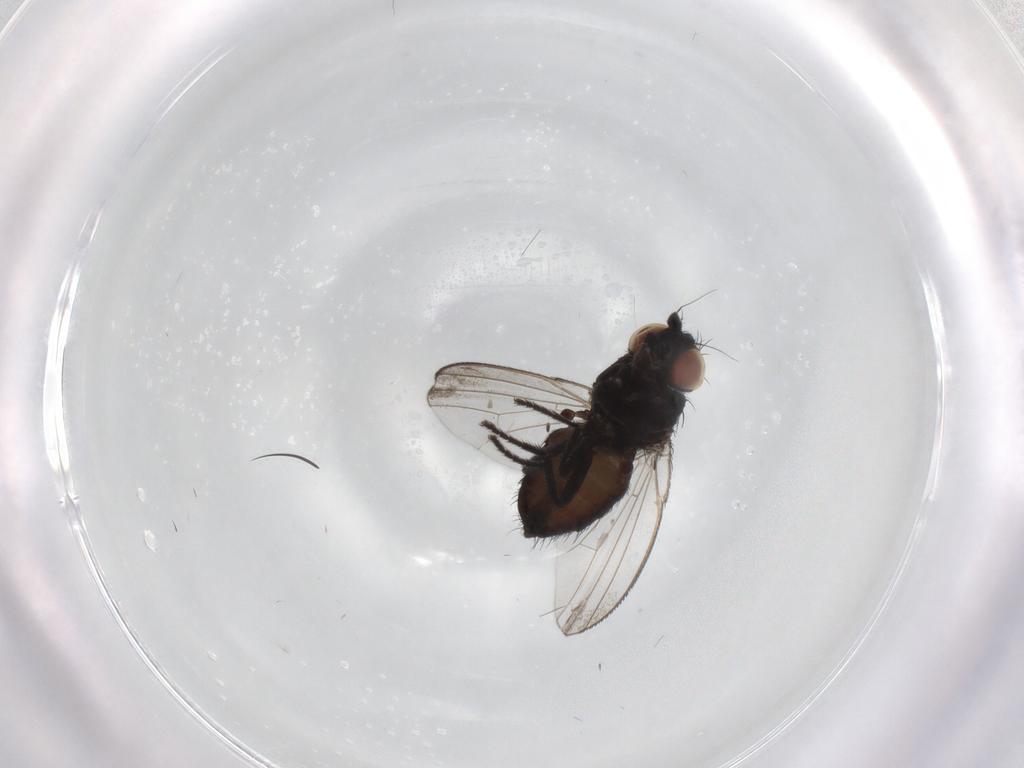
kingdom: Animalia
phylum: Arthropoda
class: Insecta
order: Diptera
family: Milichiidae
